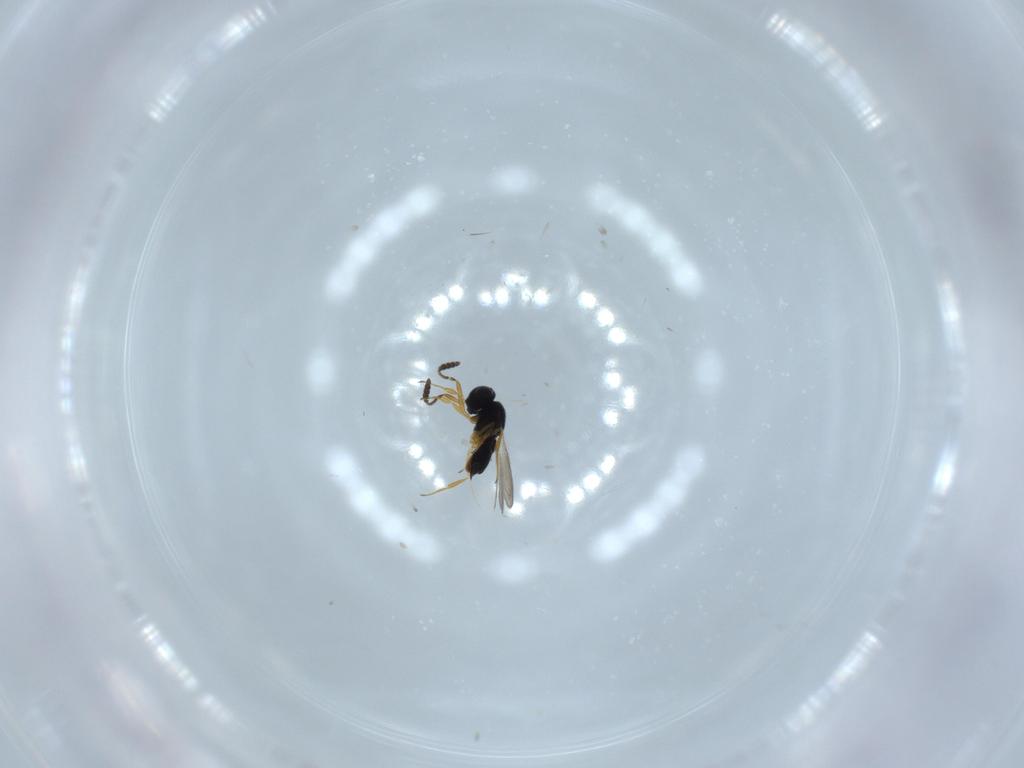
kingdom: Animalia
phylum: Arthropoda
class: Insecta
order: Hymenoptera
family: Scelionidae
